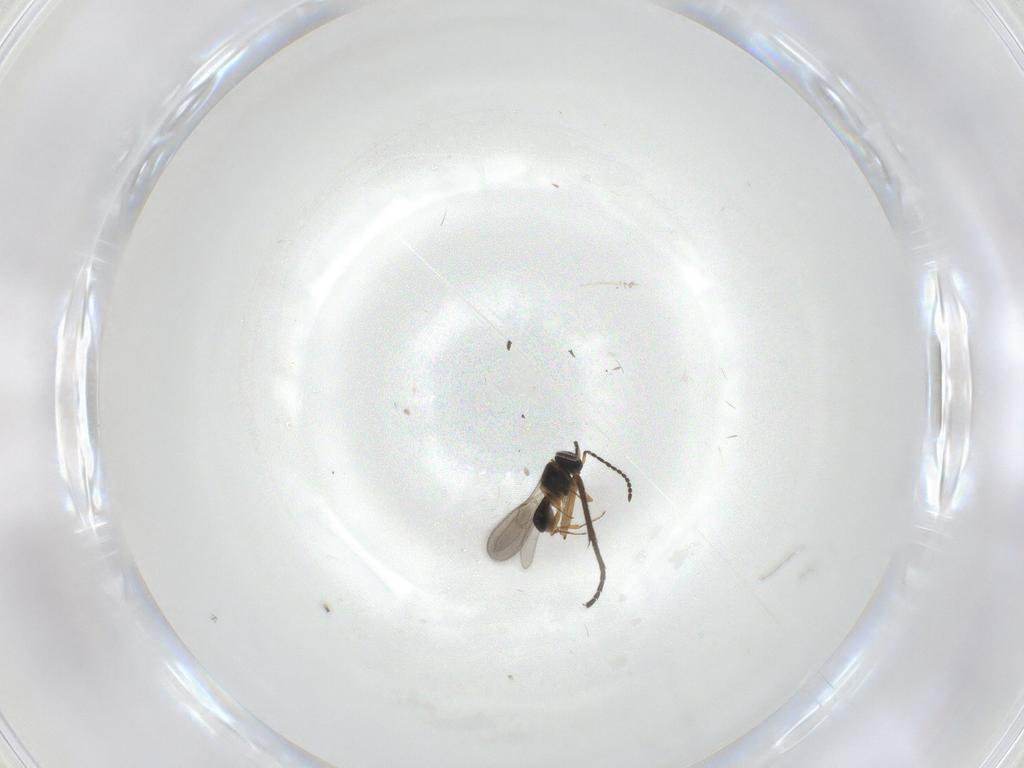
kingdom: Animalia
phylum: Arthropoda
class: Insecta
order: Hymenoptera
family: Scelionidae
